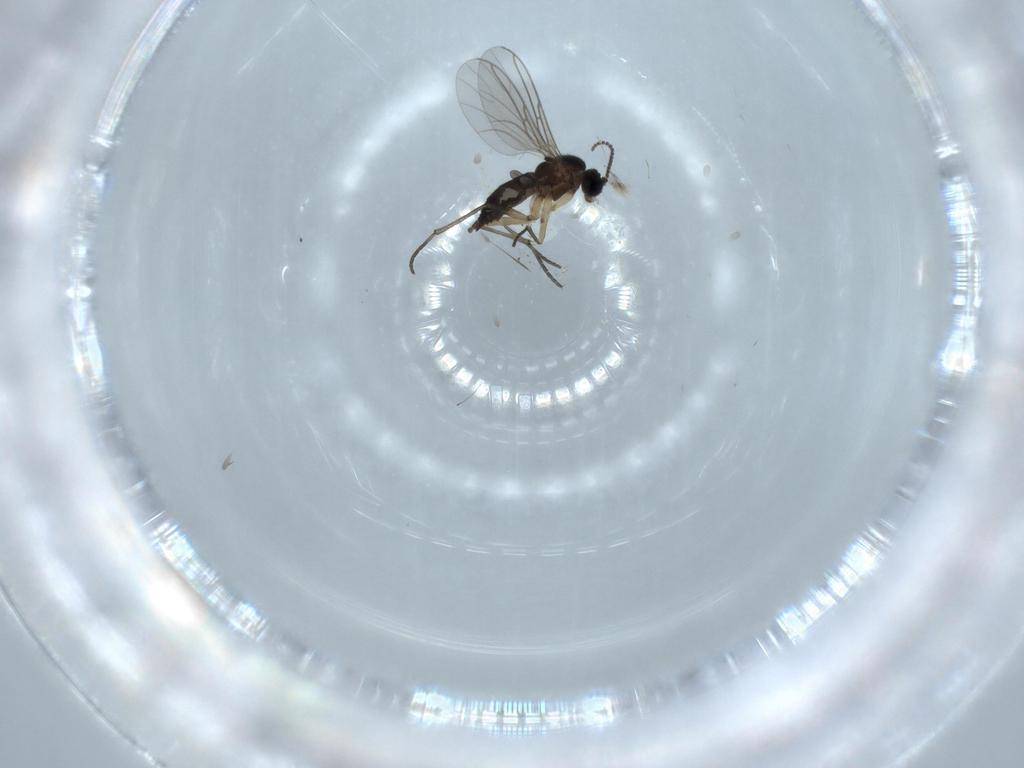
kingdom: Animalia
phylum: Arthropoda
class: Insecta
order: Diptera
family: Sciaridae
